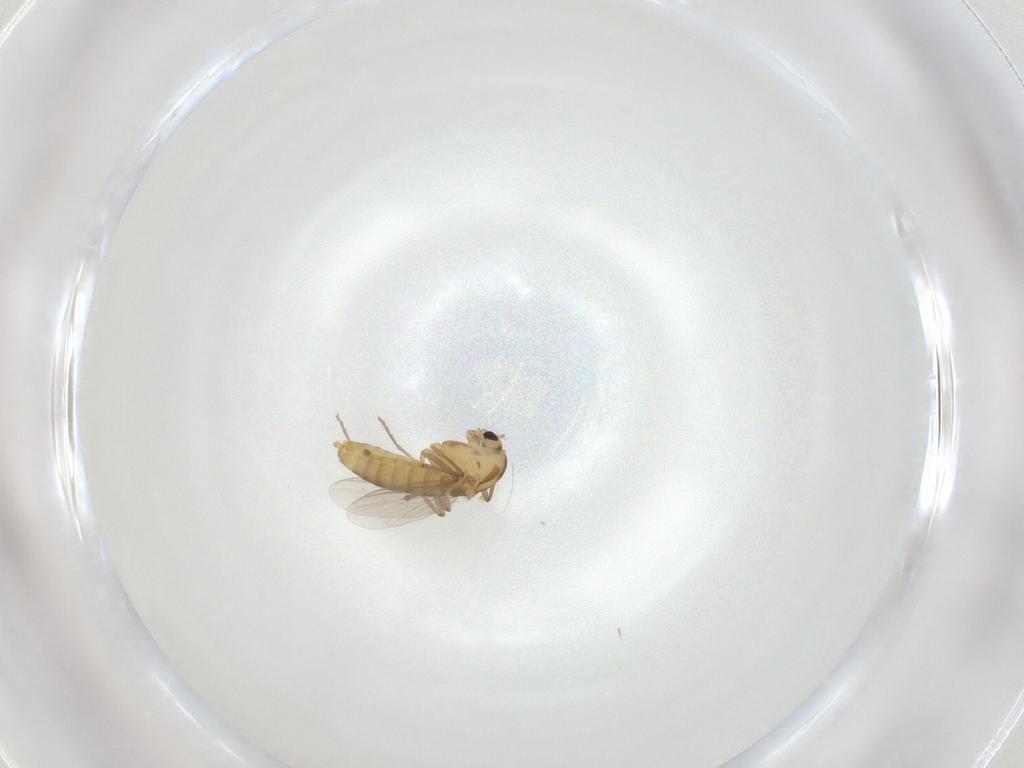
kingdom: Animalia
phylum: Arthropoda
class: Insecta
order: Diptera
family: Chironomidae
